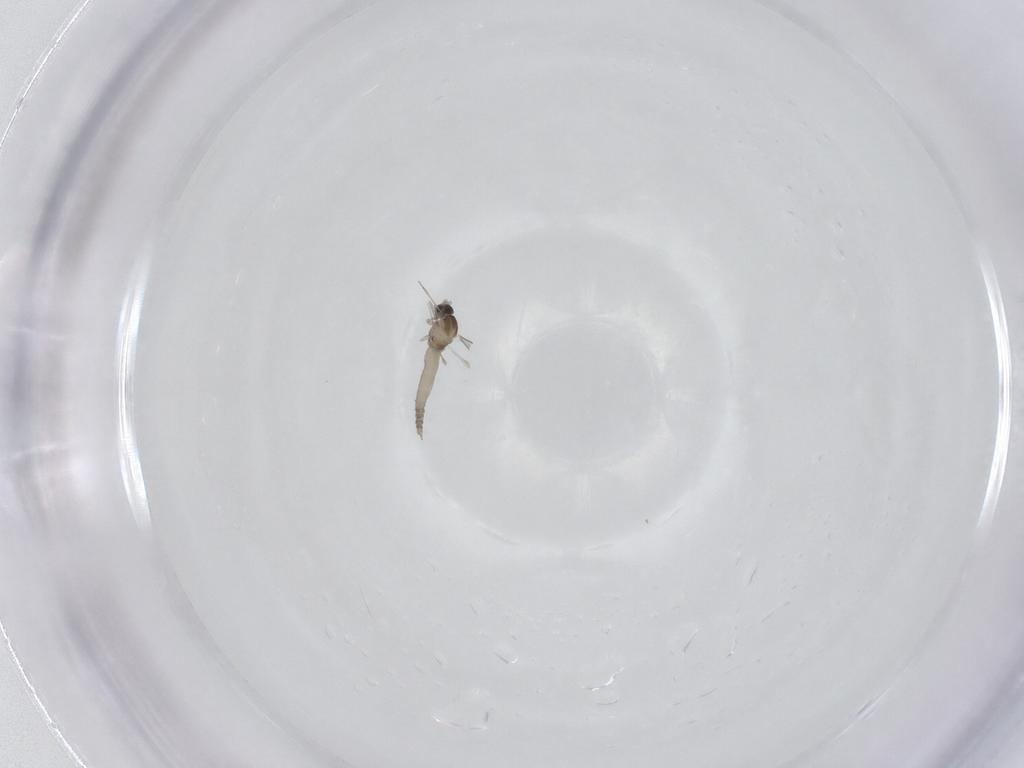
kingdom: Animalia
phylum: Arthropoda
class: Insecta
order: Diptera
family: Cecidomyiidae
